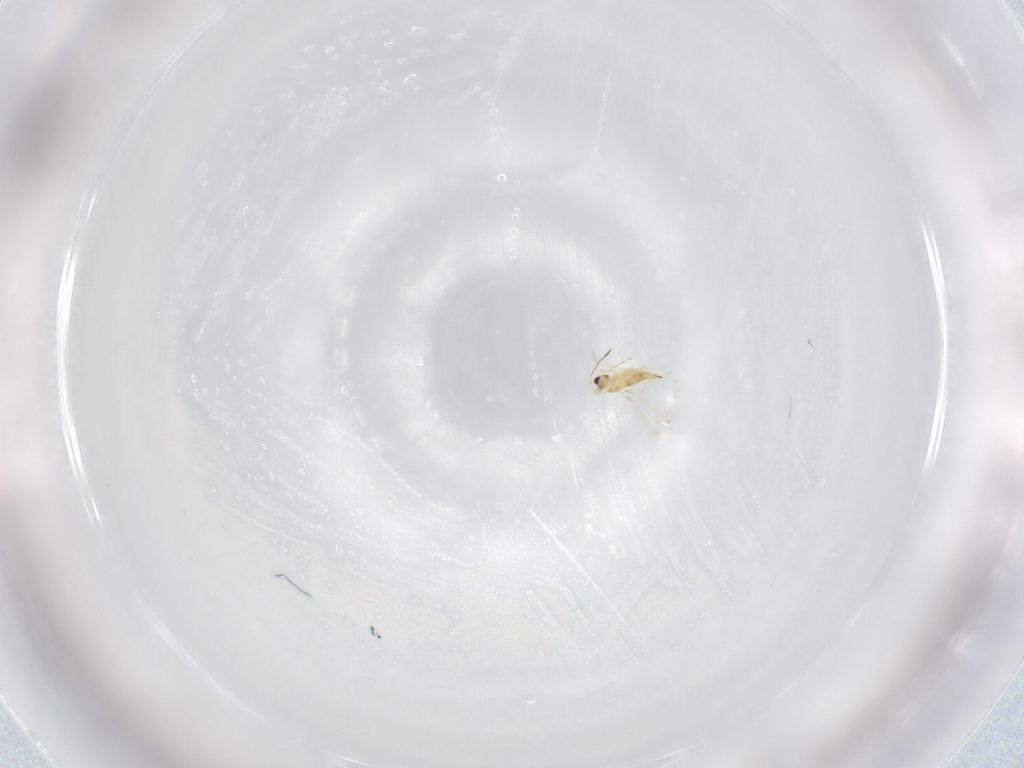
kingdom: Animalia
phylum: Arthropoda
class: Insecta
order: Hymenoptera
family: Mymaridae
